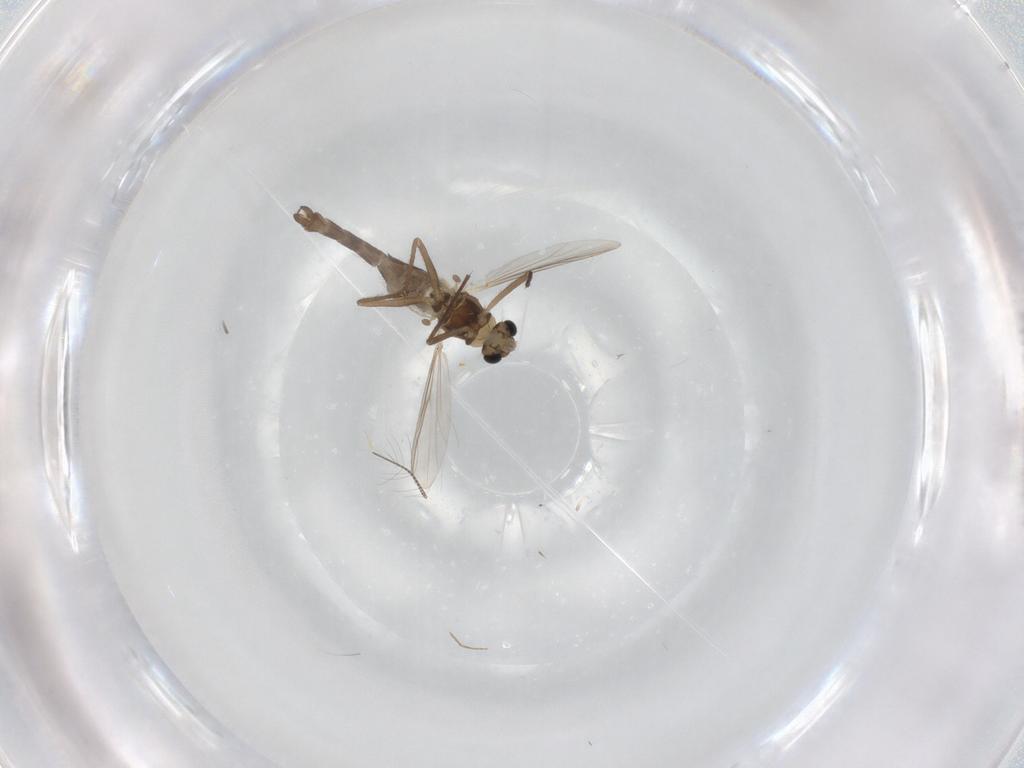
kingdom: Animalia
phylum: Arthropoda
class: Insecta
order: Diptera
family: Chironomidae
